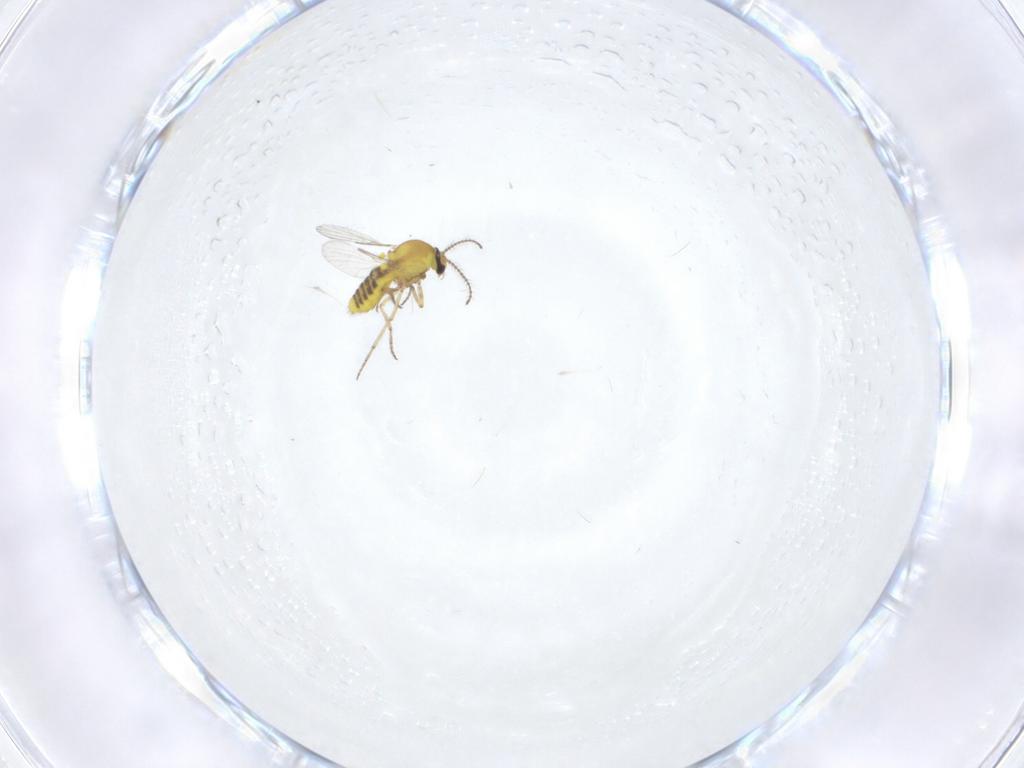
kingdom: Animalia
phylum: Arthropoda
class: Insecta
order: Diptera
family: Ceratopogonidae
